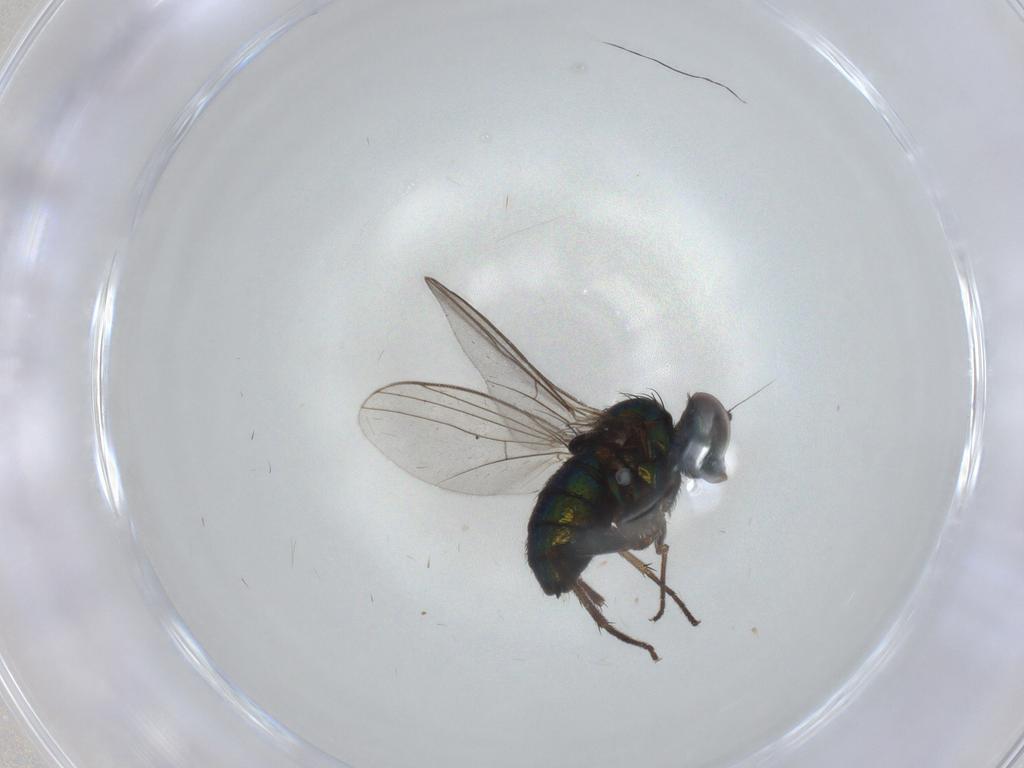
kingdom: Animalia
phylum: Arthropoda
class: Insecta
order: Diptera
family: Dolichopodidae
